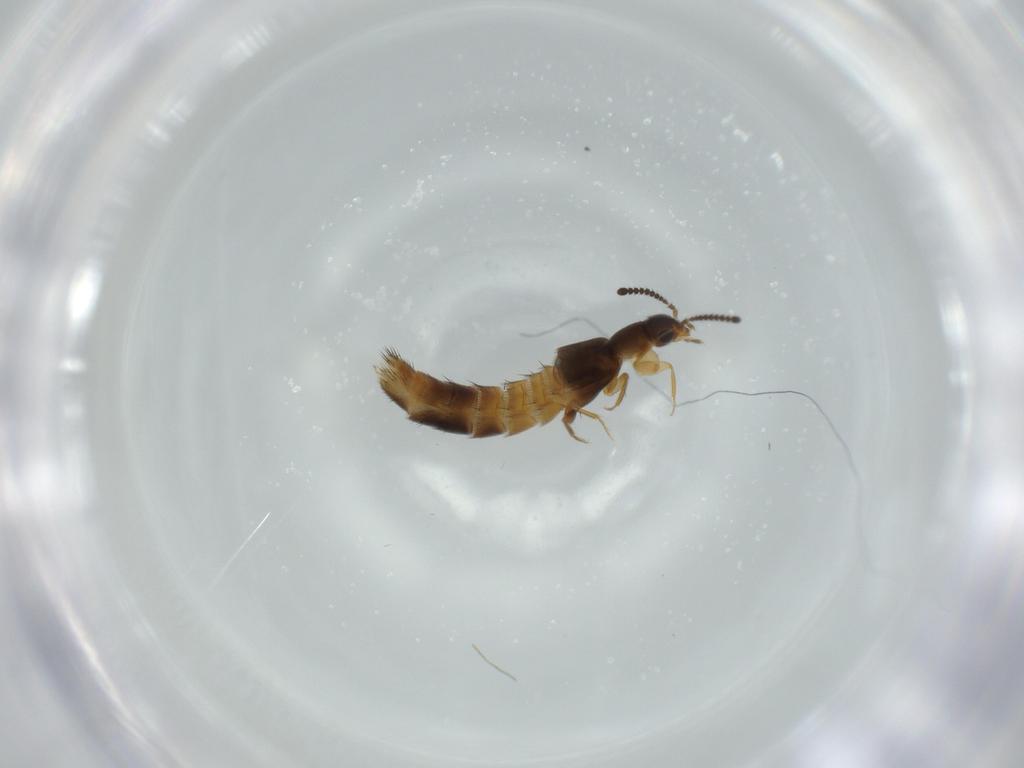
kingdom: Animalia
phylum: Arthropoda
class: Insecta
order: Coleoptera
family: Staphylinidae
